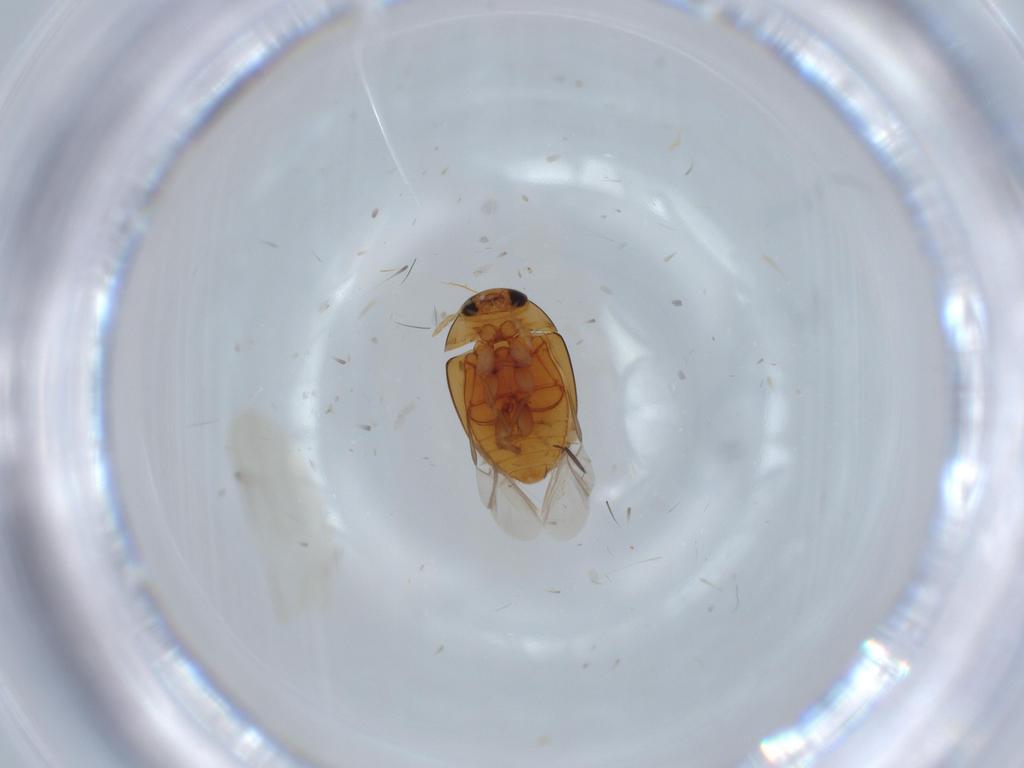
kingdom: Animalia
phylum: Arthropoda
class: Insecta
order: Coleoptera
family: Phalacridae
